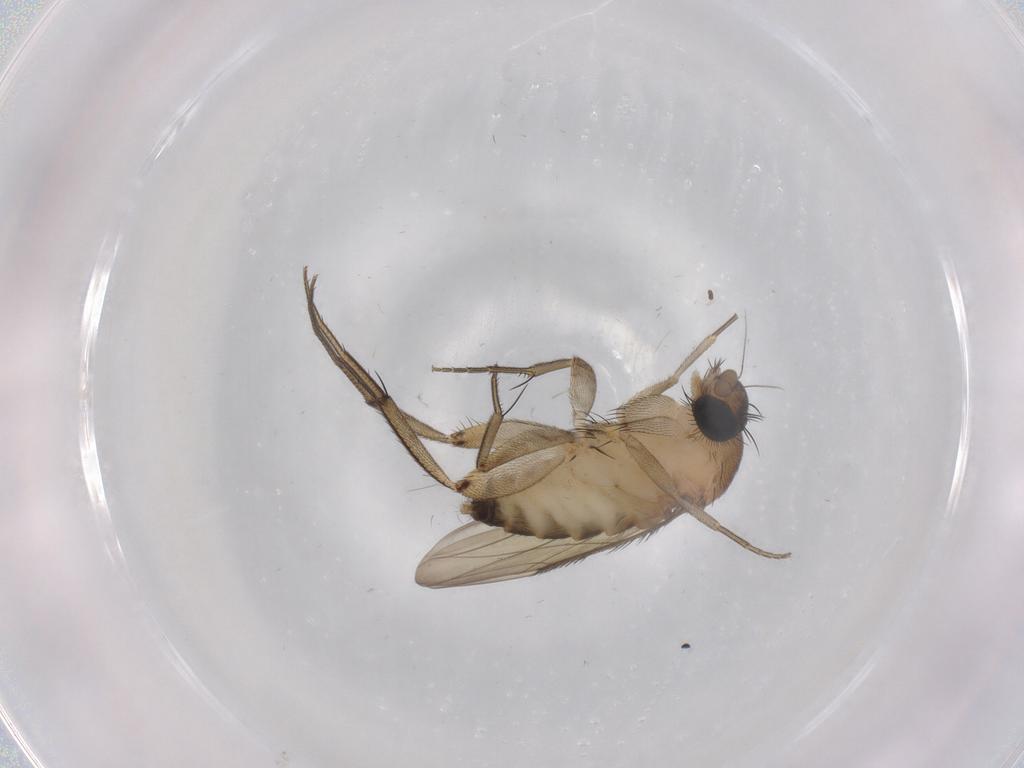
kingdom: Animalia
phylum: Arthropoda
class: Insecta
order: Diptera
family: Phoridae
